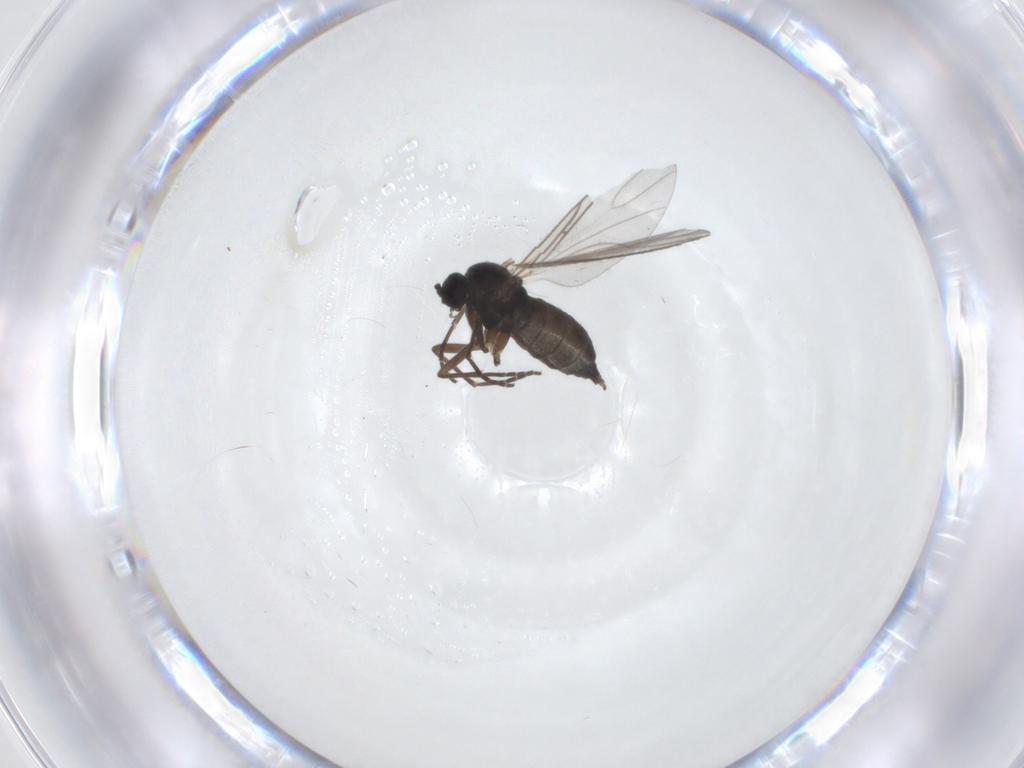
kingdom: Animalia
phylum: Arthropoda
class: Insecta
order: Diptera
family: Sciaridae
